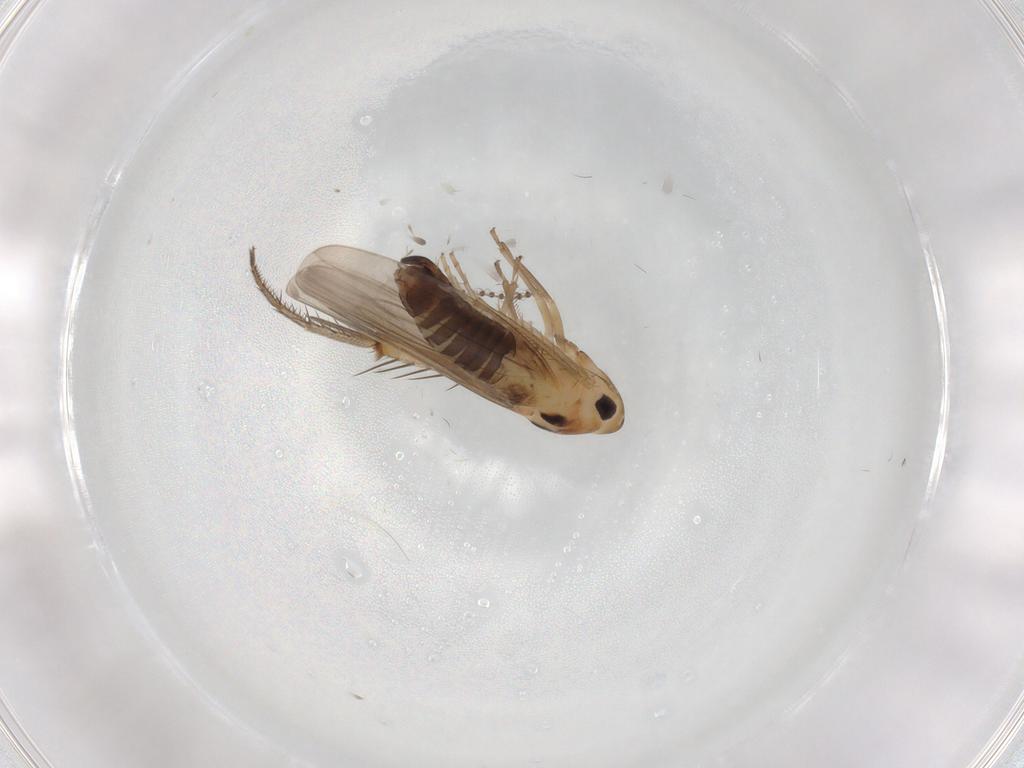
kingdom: Animalia
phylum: Arthropoda
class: Insecta
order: Hemiptera
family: Cicadellidae
